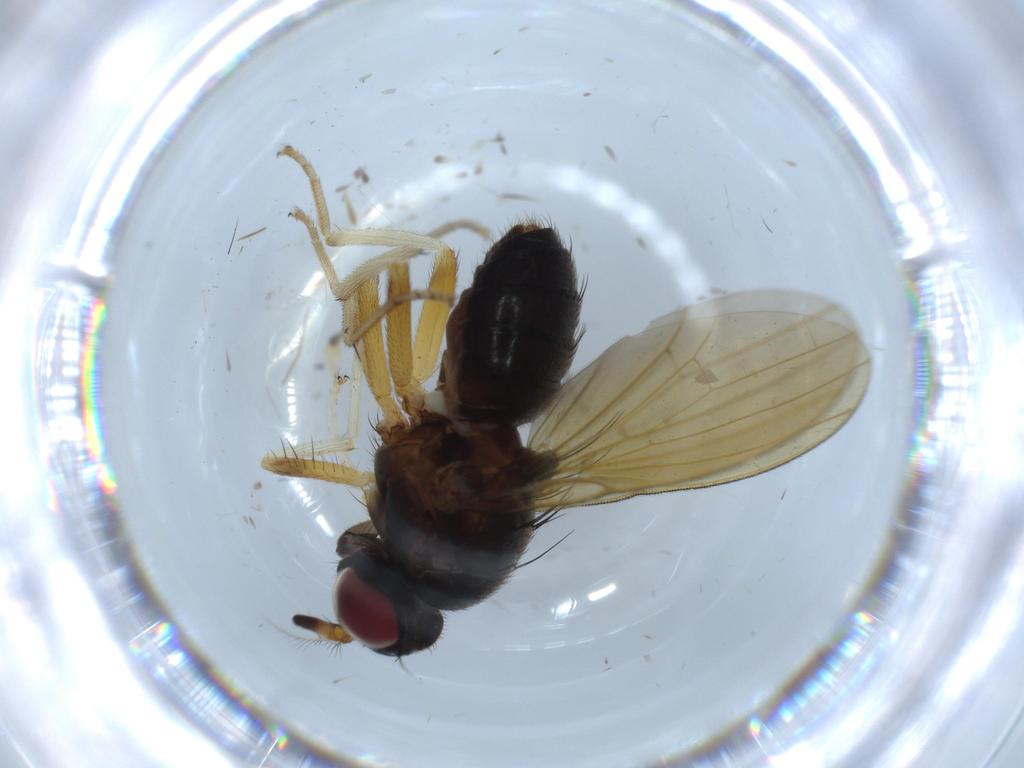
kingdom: Animalia
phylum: Arthropoda
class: Insecta
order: Diptera
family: Sciaridae
